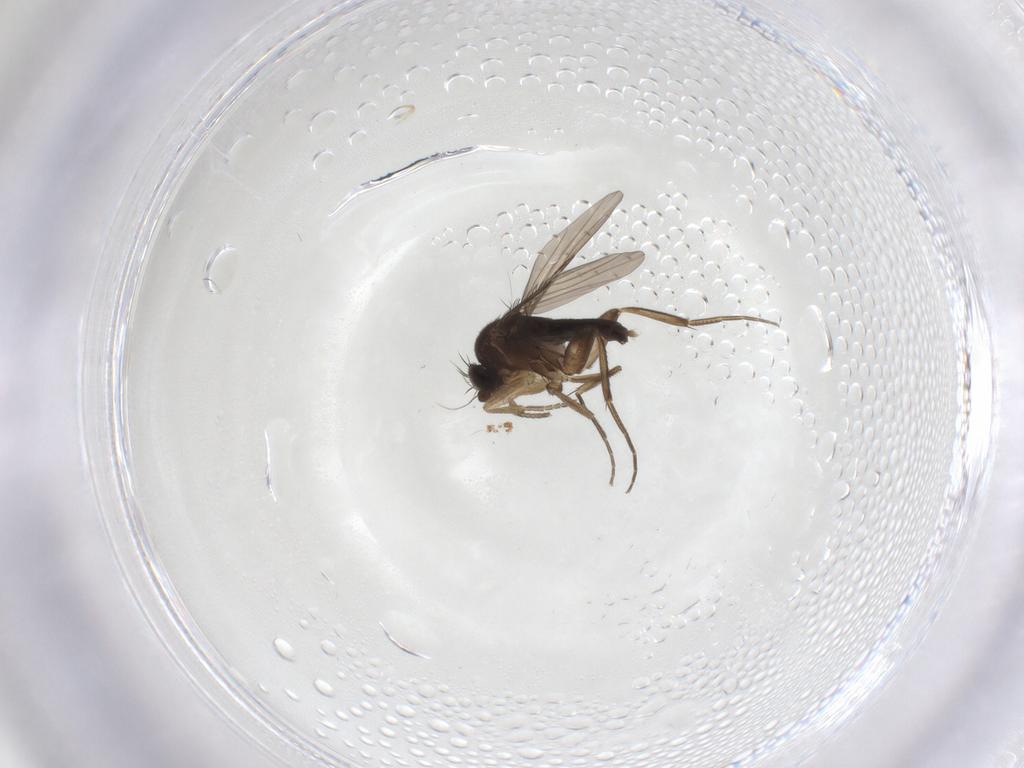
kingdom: Animalia
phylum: Arthropoda
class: Insecta
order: Diptera
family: Phoridae
